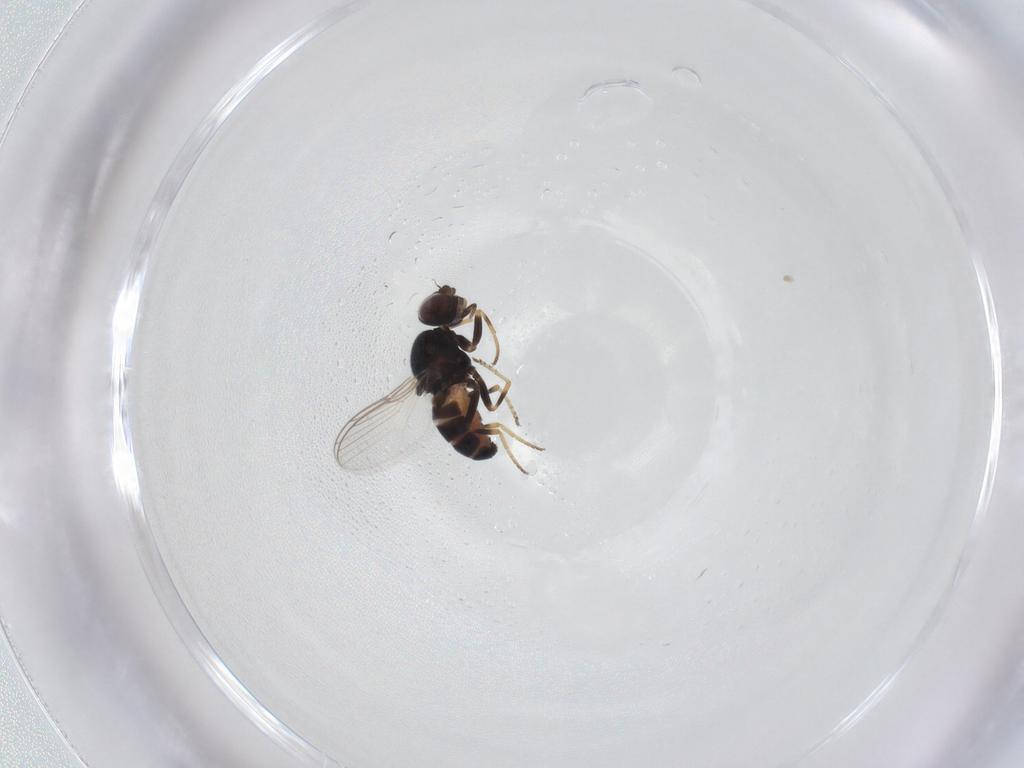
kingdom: Animalia
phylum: Arthropoda
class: Insecta
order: Diptera
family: Chloropidae
